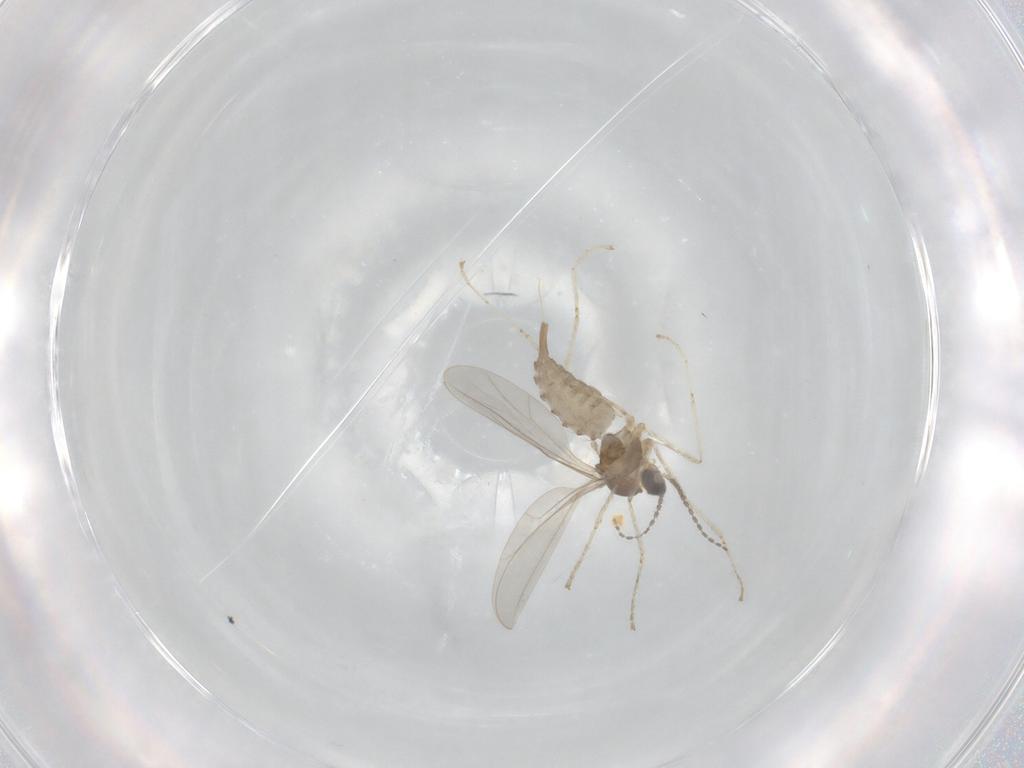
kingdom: Animalia
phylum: Arthropoda
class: Insecta
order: Diptera
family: Cecidomyiidae
